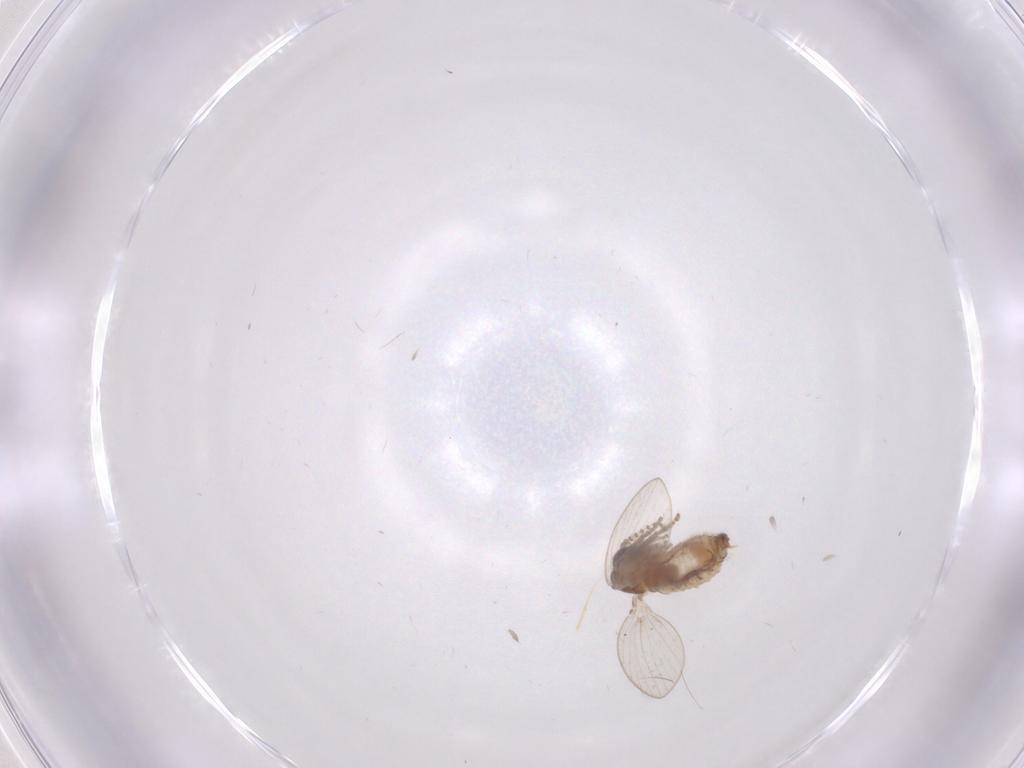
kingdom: Animalia
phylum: Arthropoda
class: Insecta
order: Diptera
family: Psychodidae
